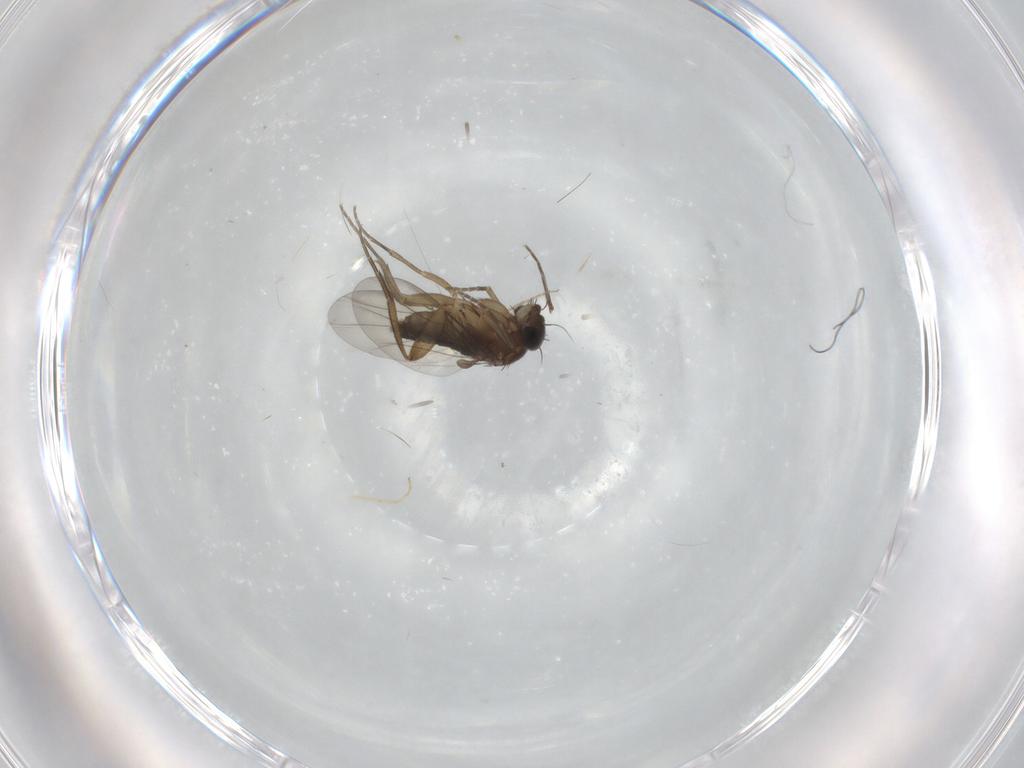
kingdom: Animalia
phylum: Arthropoda
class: Insecta
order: Diptera
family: Phoridae
